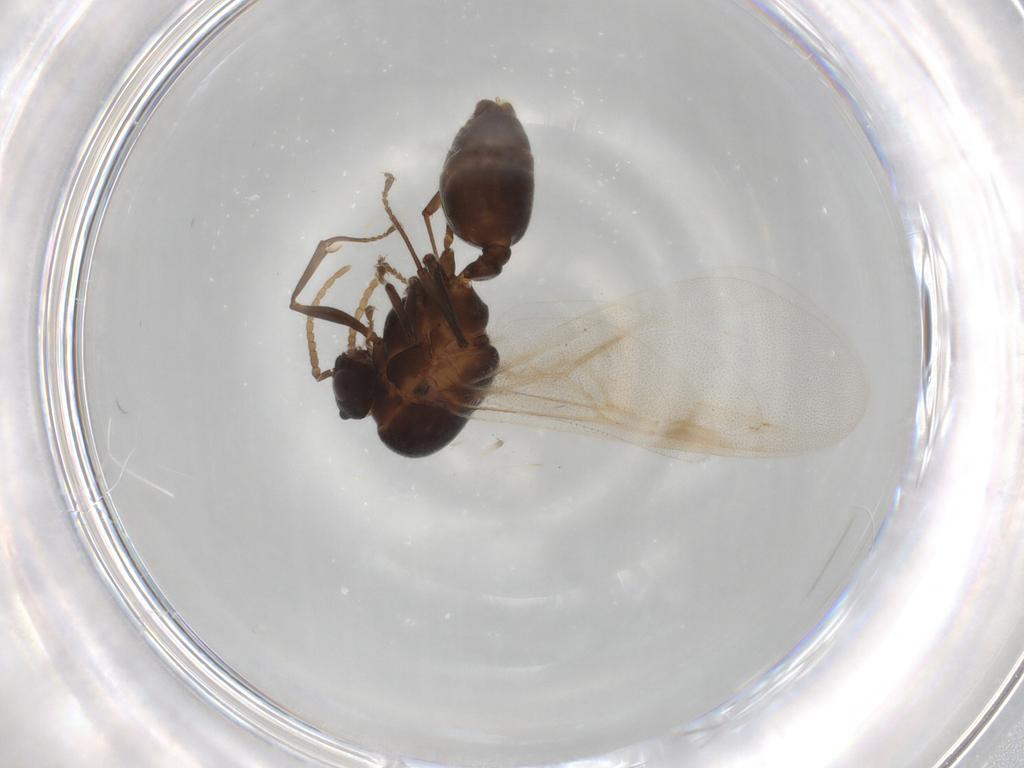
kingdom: Animalia
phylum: Arthropoda
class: Insecta
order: Hymenoptera
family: Formicidae
